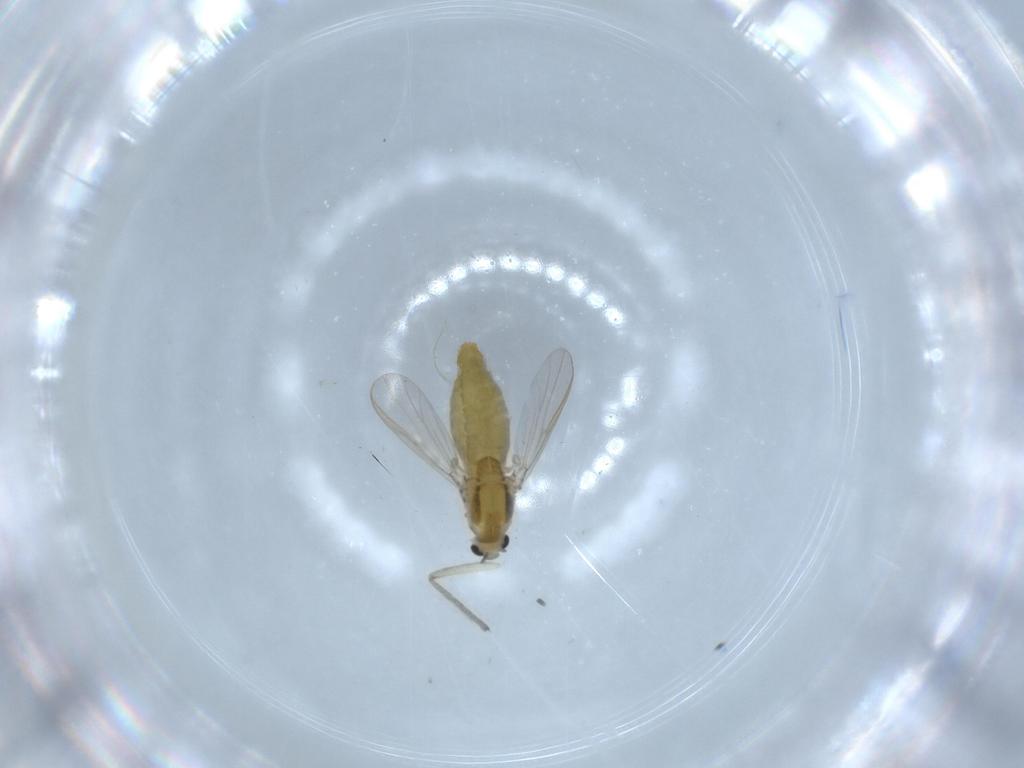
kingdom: Animalia
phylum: Arthropoda
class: Insecta
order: Diptera
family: Chironomidae
